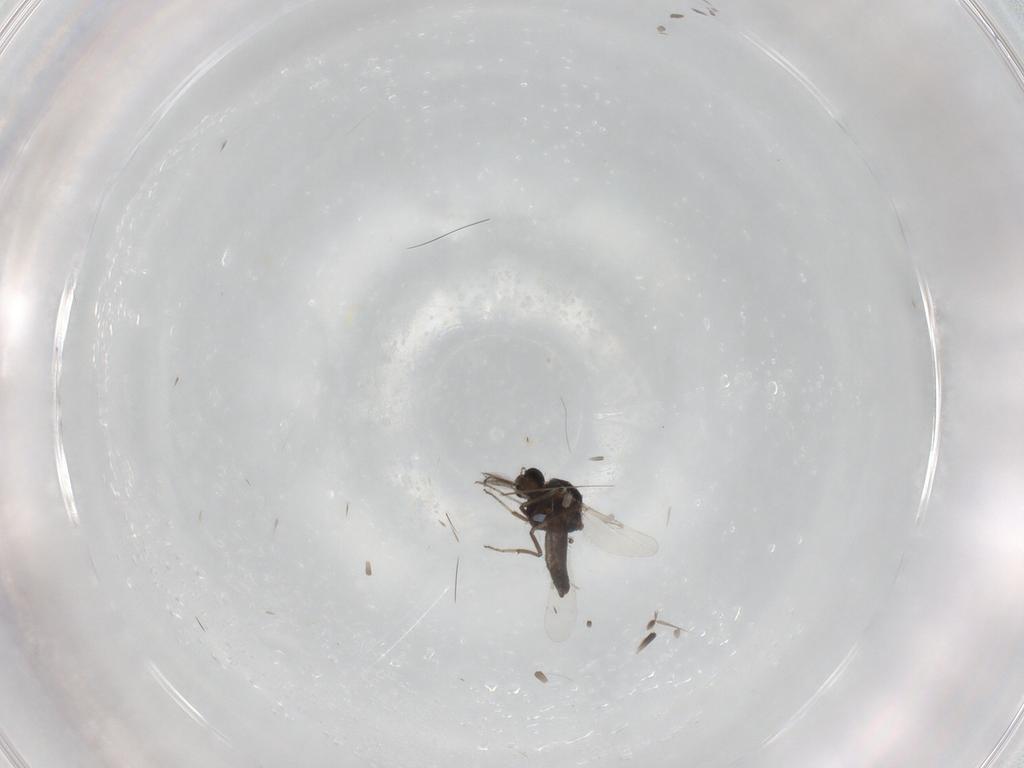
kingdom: Animalia
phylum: Arthropoda
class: Insecta
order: Diptera
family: Ceratopogonidae
